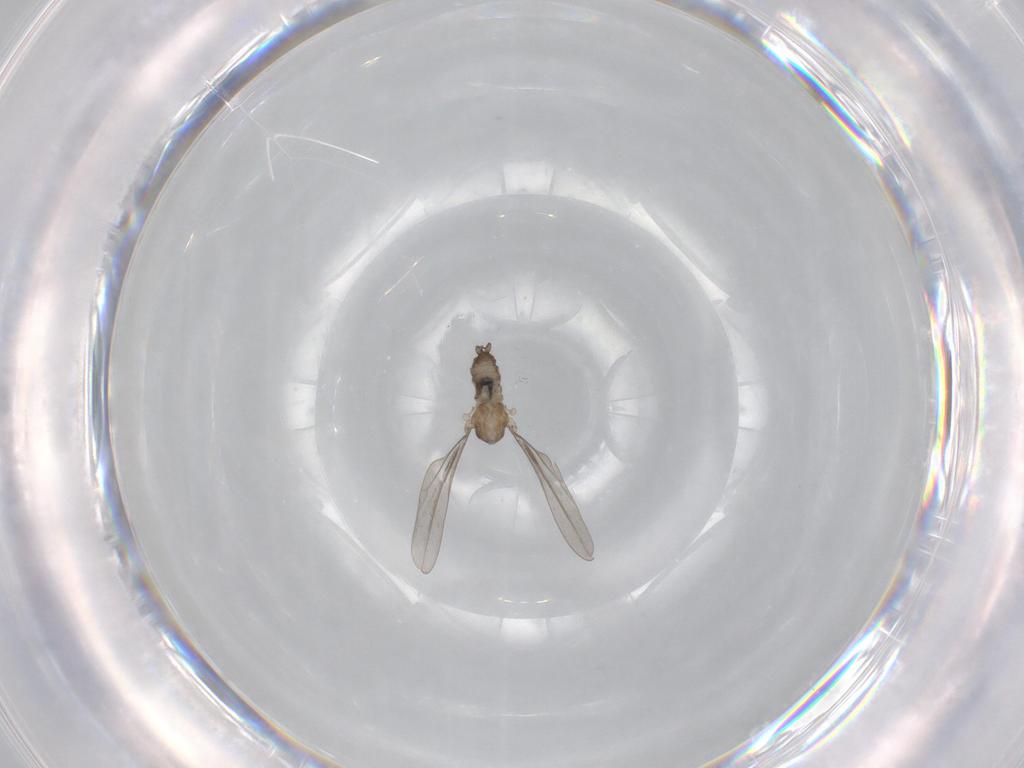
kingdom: Animalia
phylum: Arthropoda
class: Insecta
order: Diptera
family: Cecidomyiidae
